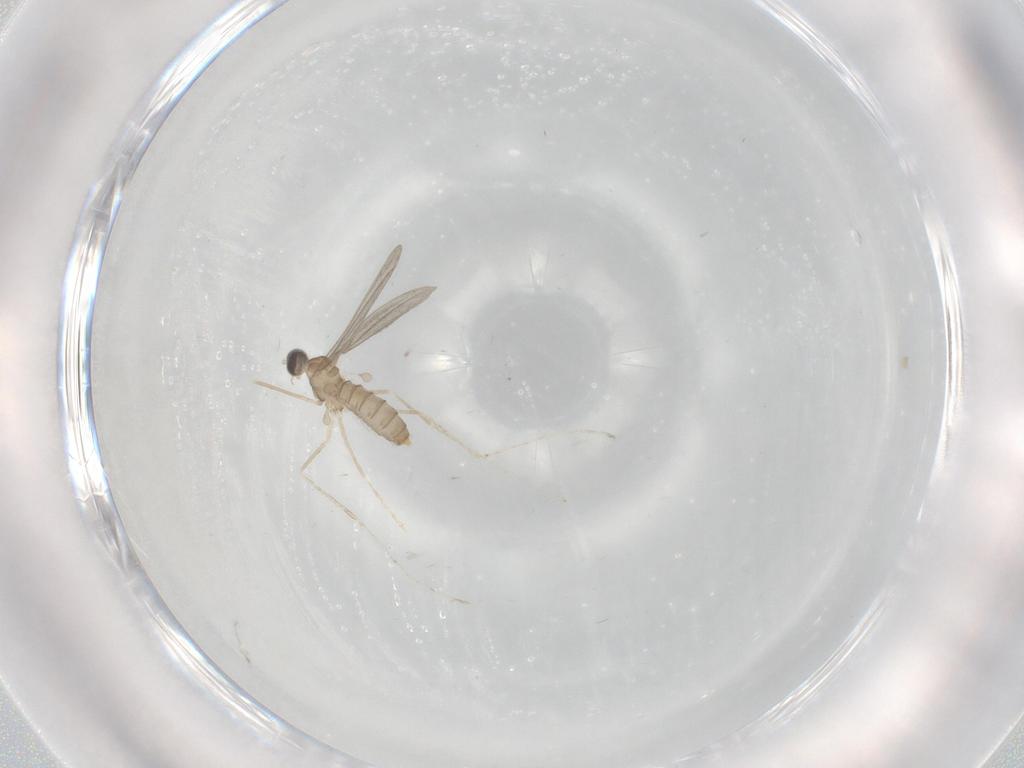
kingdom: Animalia
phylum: Arthropoda
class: Insecta
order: Diptera
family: Cecidomyiidae
